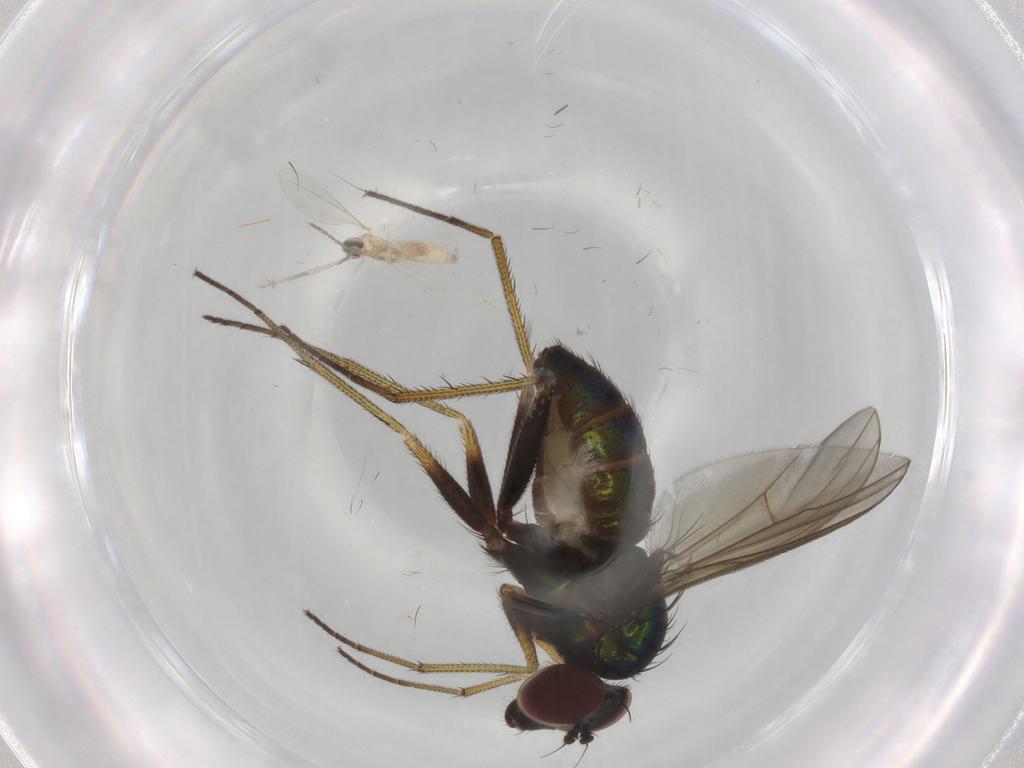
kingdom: Animalia
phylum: Arthropoda
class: Insecta
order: Diptera
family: Dolichopodidae
